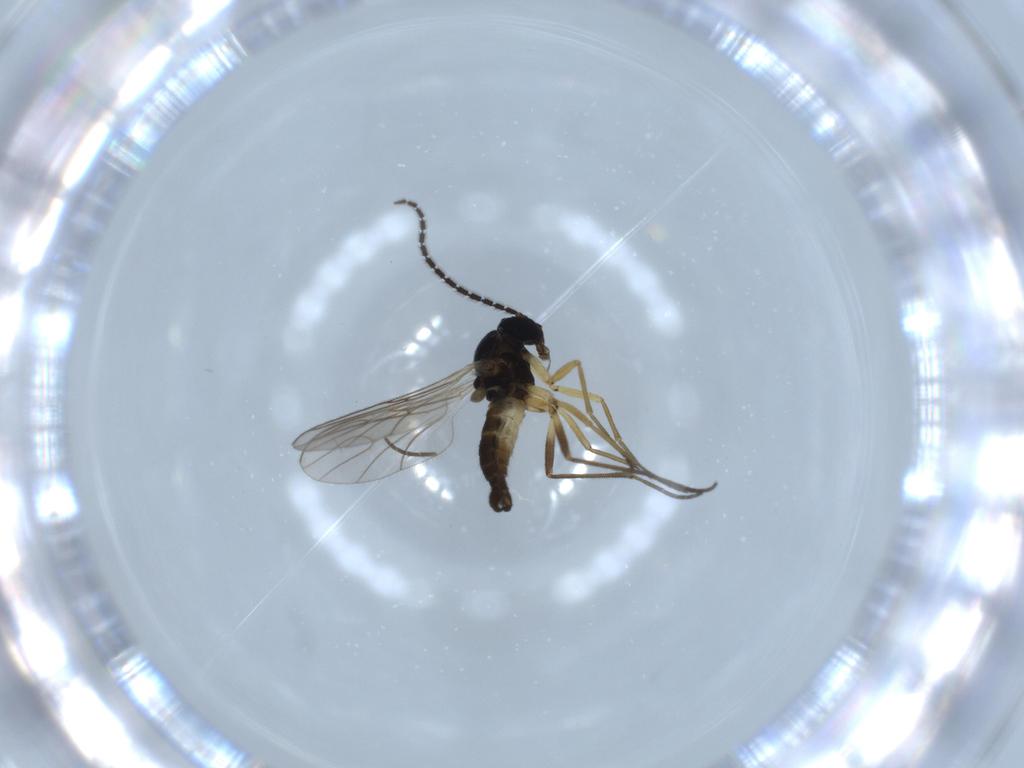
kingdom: Animalia
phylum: Arthropoda
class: Insecta
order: Diptera
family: Sciaridae
